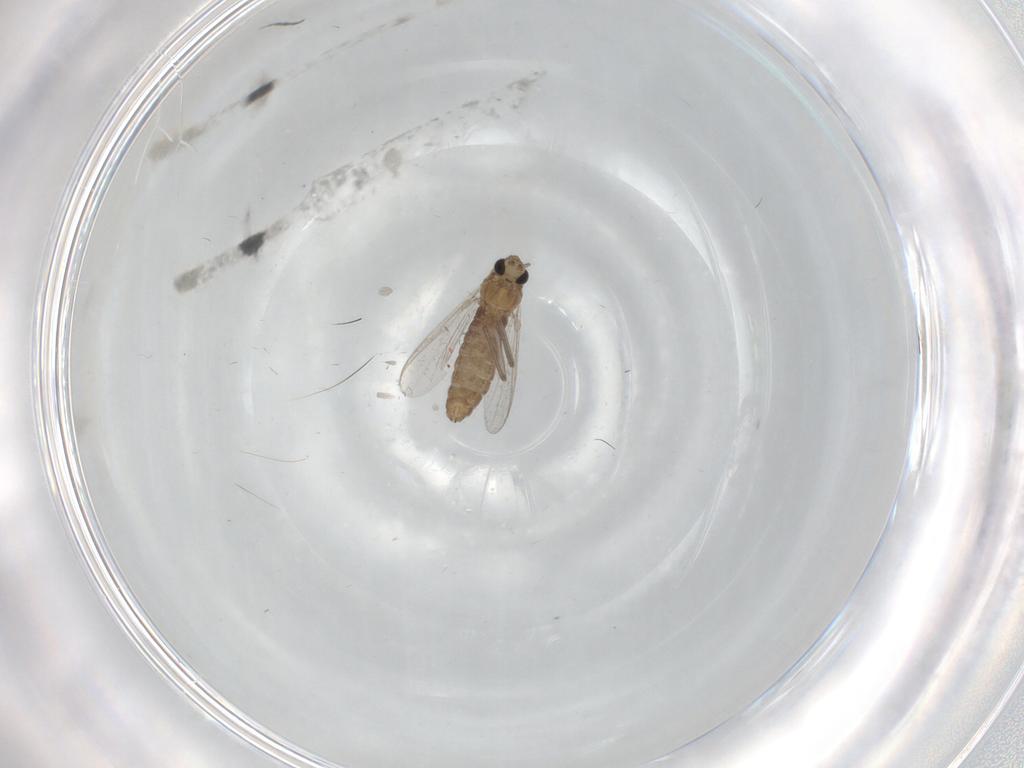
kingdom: Animalia
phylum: Arthropoda
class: Insecta
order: Diptera
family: Chironomidae
